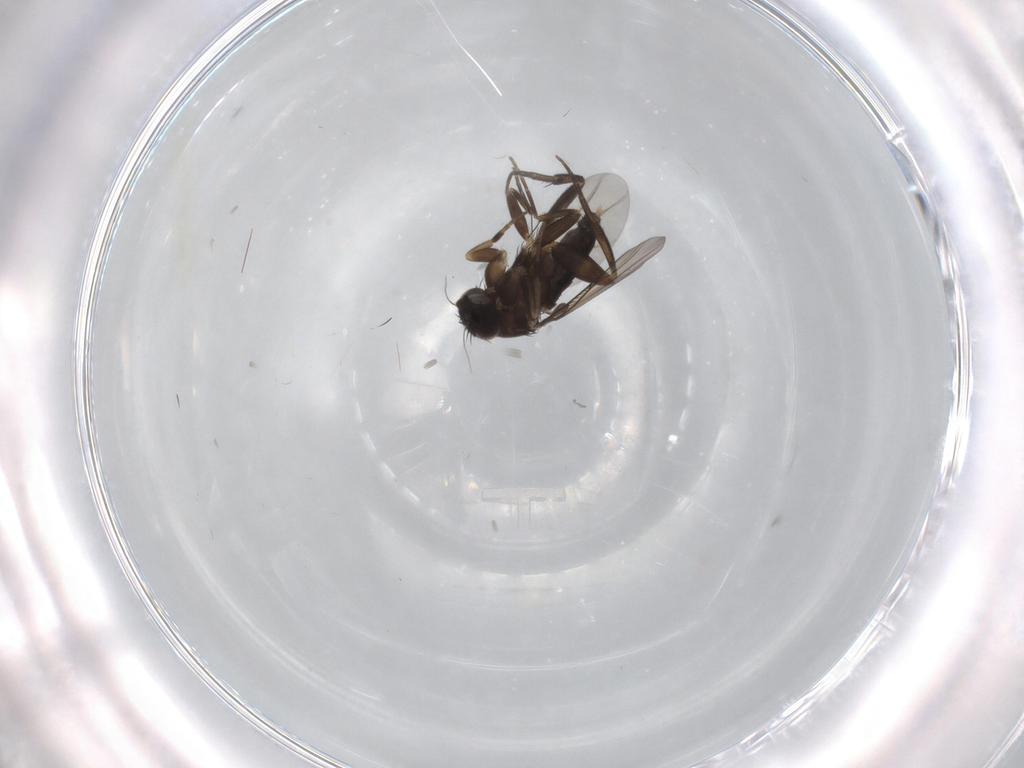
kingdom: Animalia
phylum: Arthropoda
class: Insecta
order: Diptera
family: Phoridae
